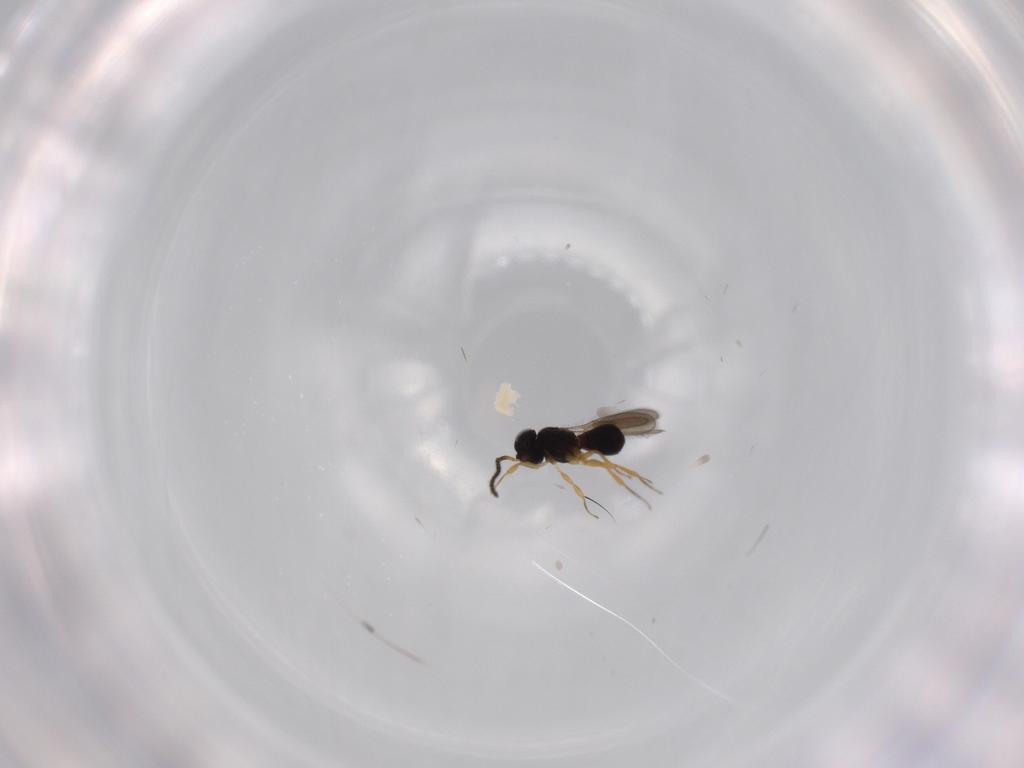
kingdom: Animalia
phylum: Arthropoda
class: Insecta
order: Hymenoptera
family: Scelionidae
